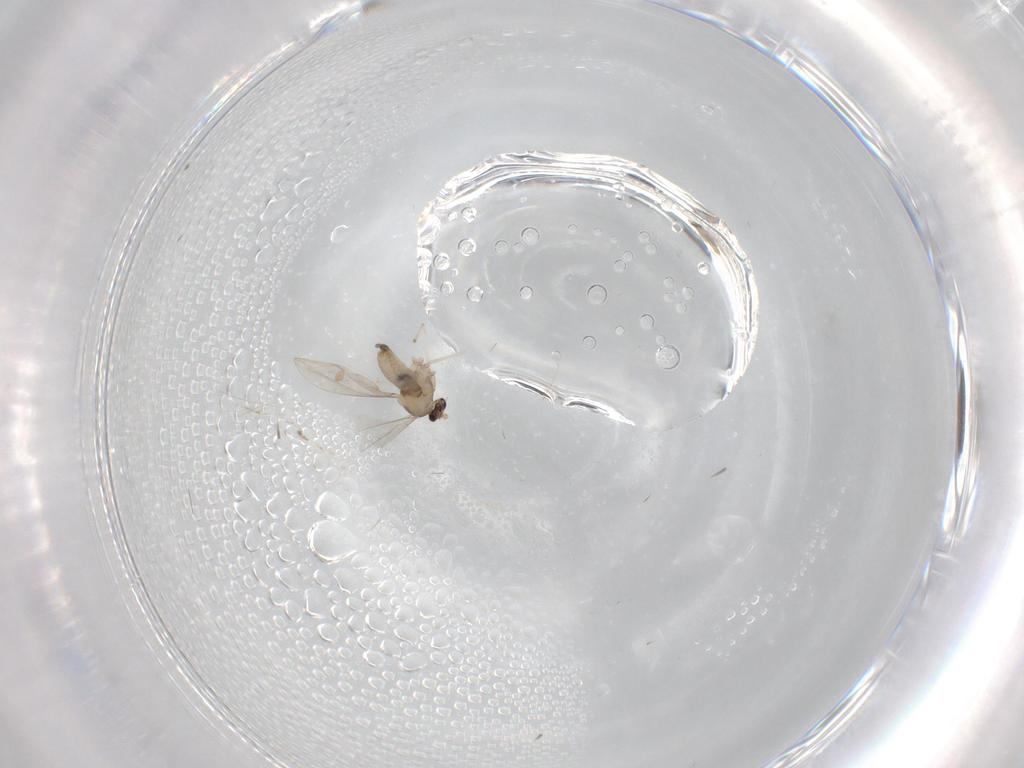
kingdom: Animalia
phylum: Arthropoda
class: Insecta
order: Diptera
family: Cecidomyiidae
